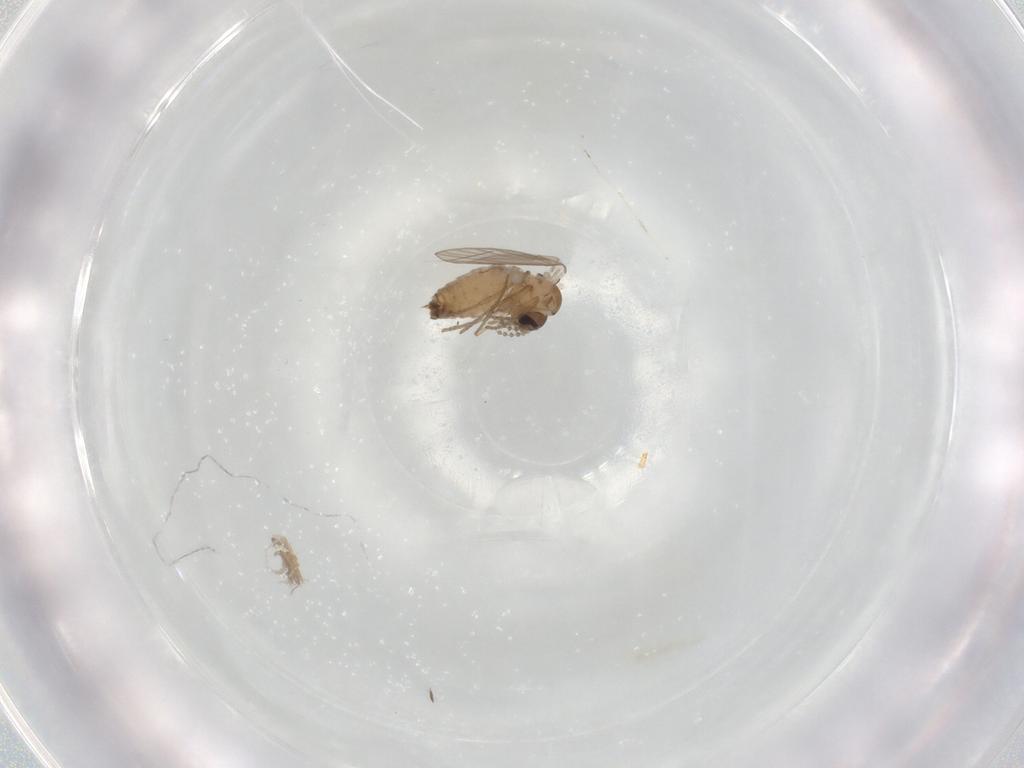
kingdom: Animalia
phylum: Arthropoda
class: Insecta
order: Diptera
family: Psychodidae
